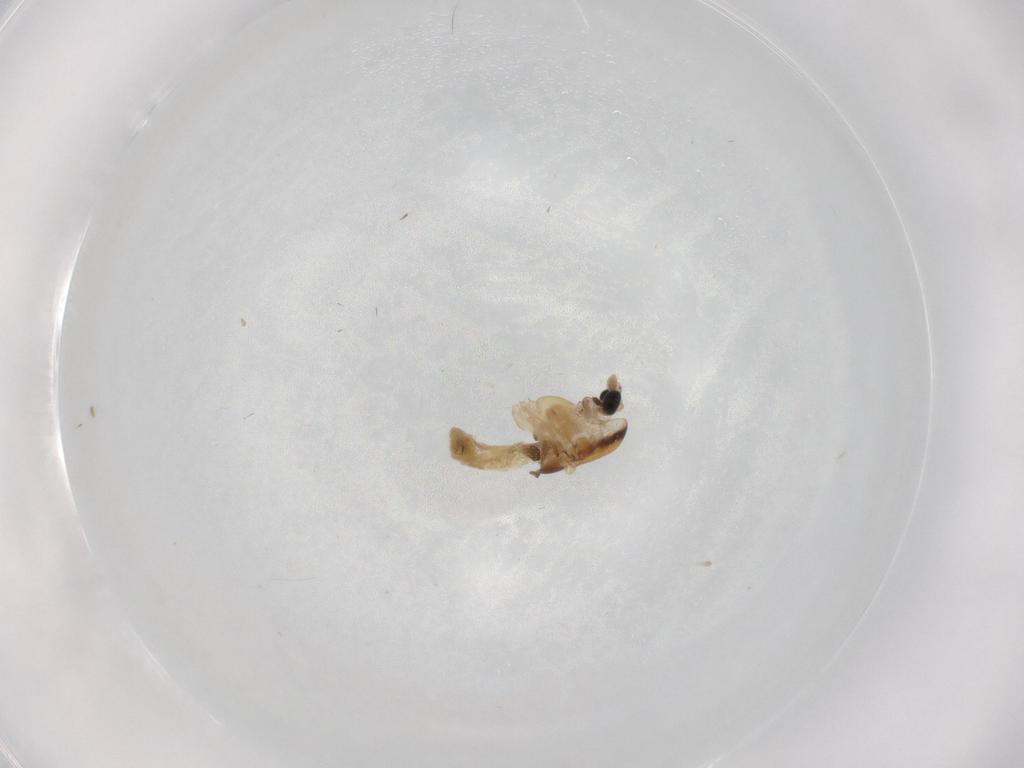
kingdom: Animalia
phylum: Arthropoda
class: Insecta
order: Diptera
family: Chironomidae
